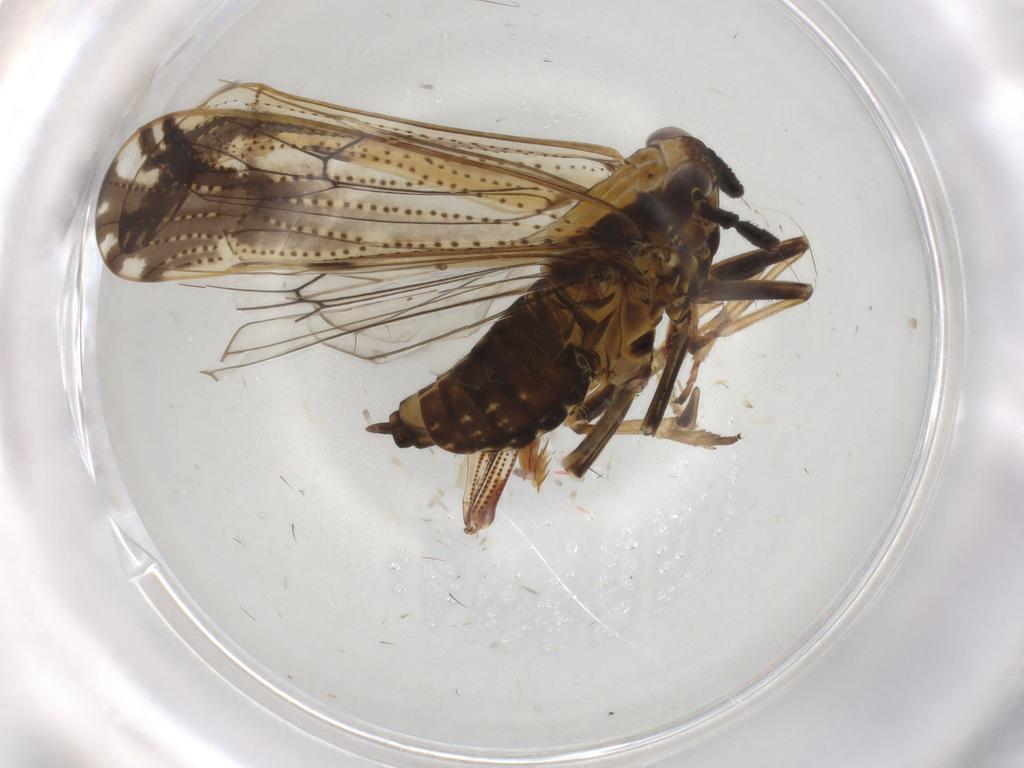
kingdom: Animalia
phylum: Arthropoda
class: Insecta
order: Hemiptera
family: Delphacidae
